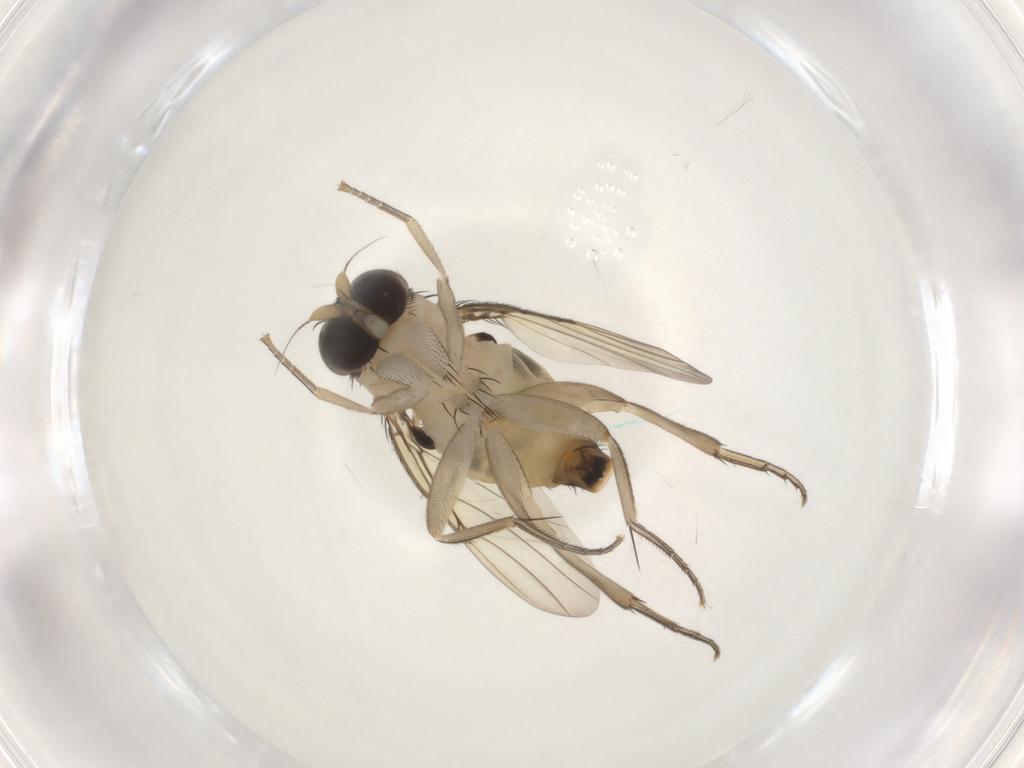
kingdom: Animalia
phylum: Arthropoda
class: Insecta
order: Diptera
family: Phoridae
